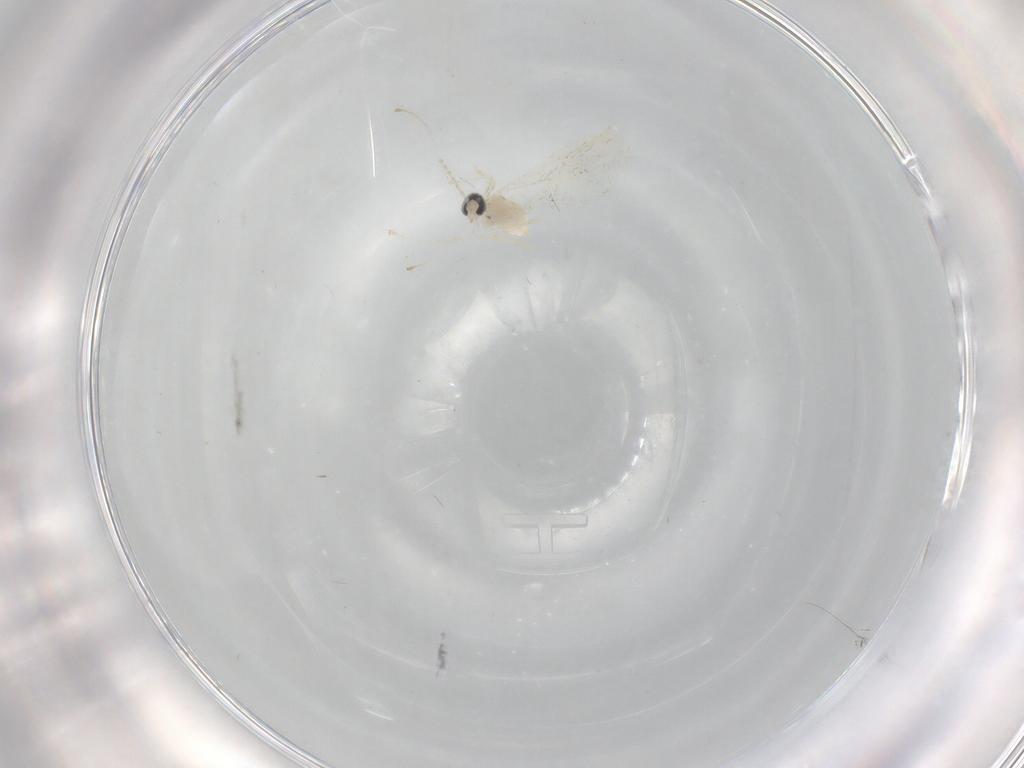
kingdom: Animalia
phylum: Arthropoda
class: Insecta
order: Diptera
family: Cecidomyiidae
